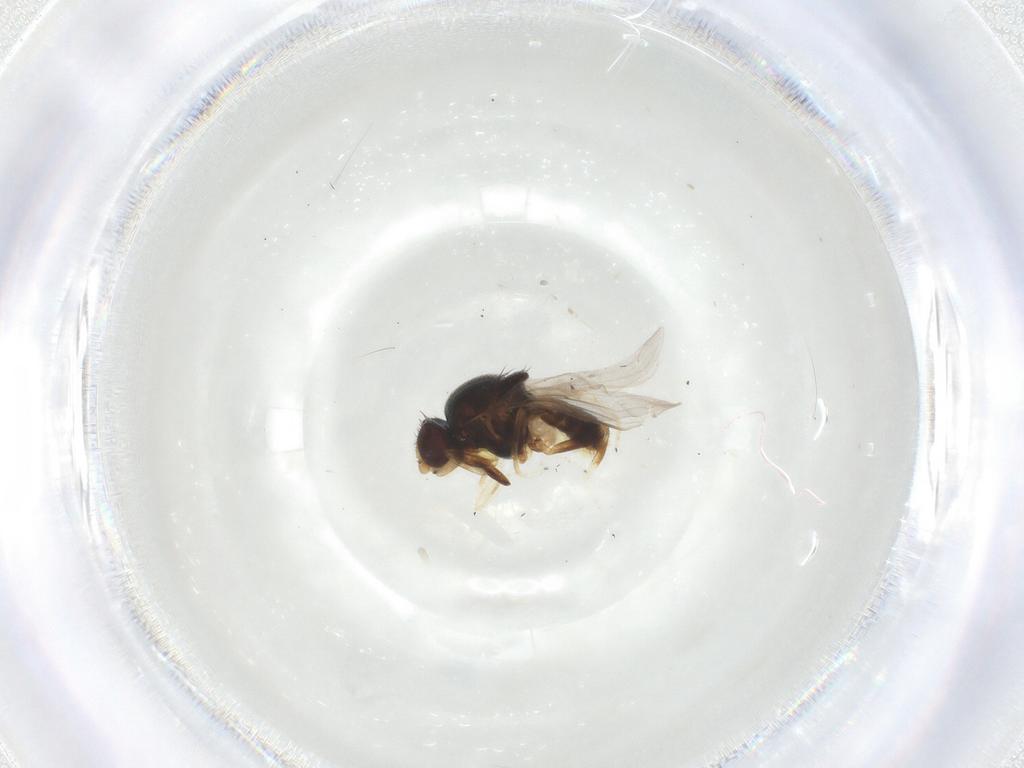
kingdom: Animalia
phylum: Arthropoda
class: Insecta
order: Diptera
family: Chloropidae
